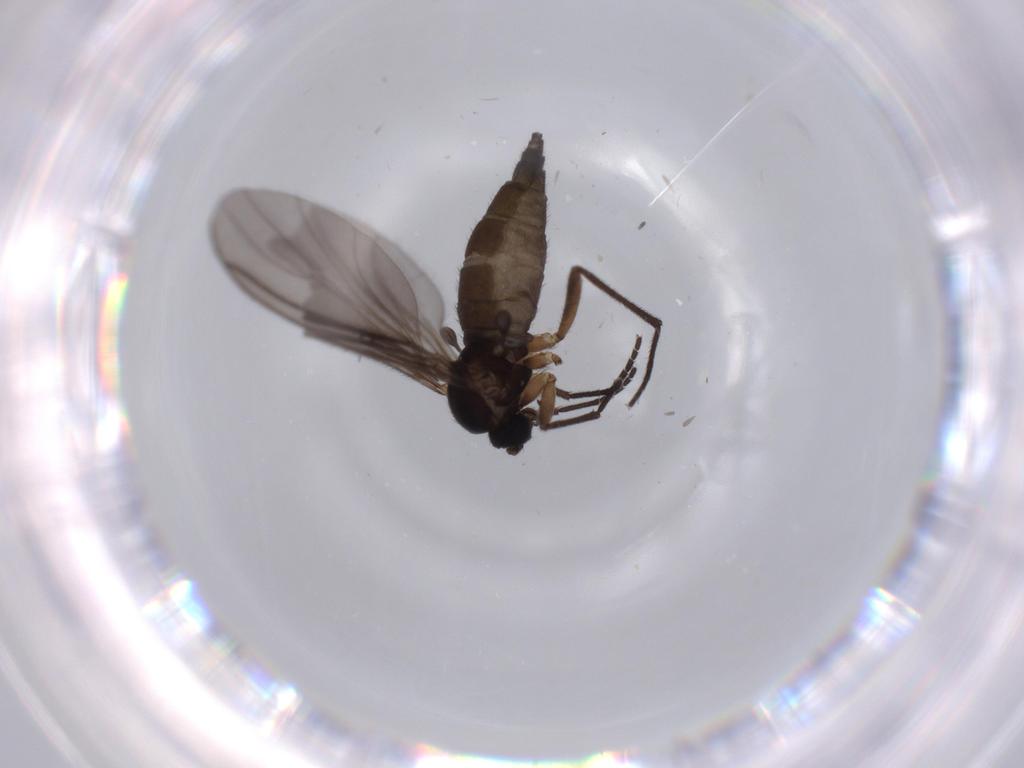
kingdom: Animalia
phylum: Arthropoda
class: Insecta
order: Diptera
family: Sciaridae
